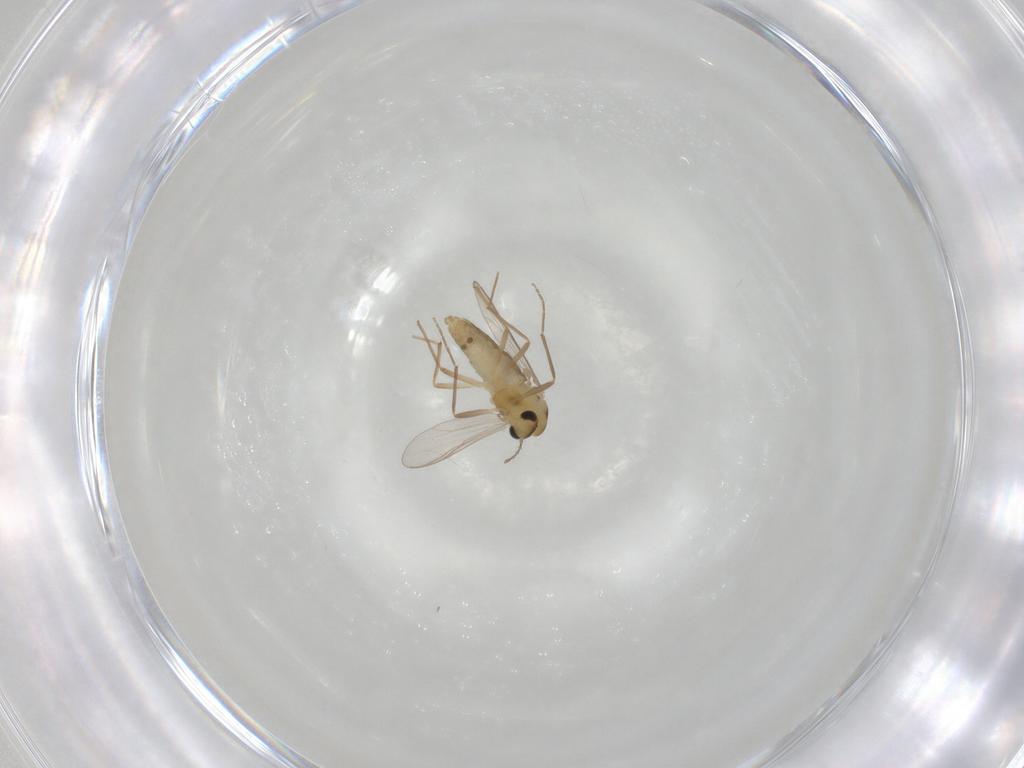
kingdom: Animalia
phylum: Arthropoda
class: Insecta
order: Diptera
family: Chironomidae
